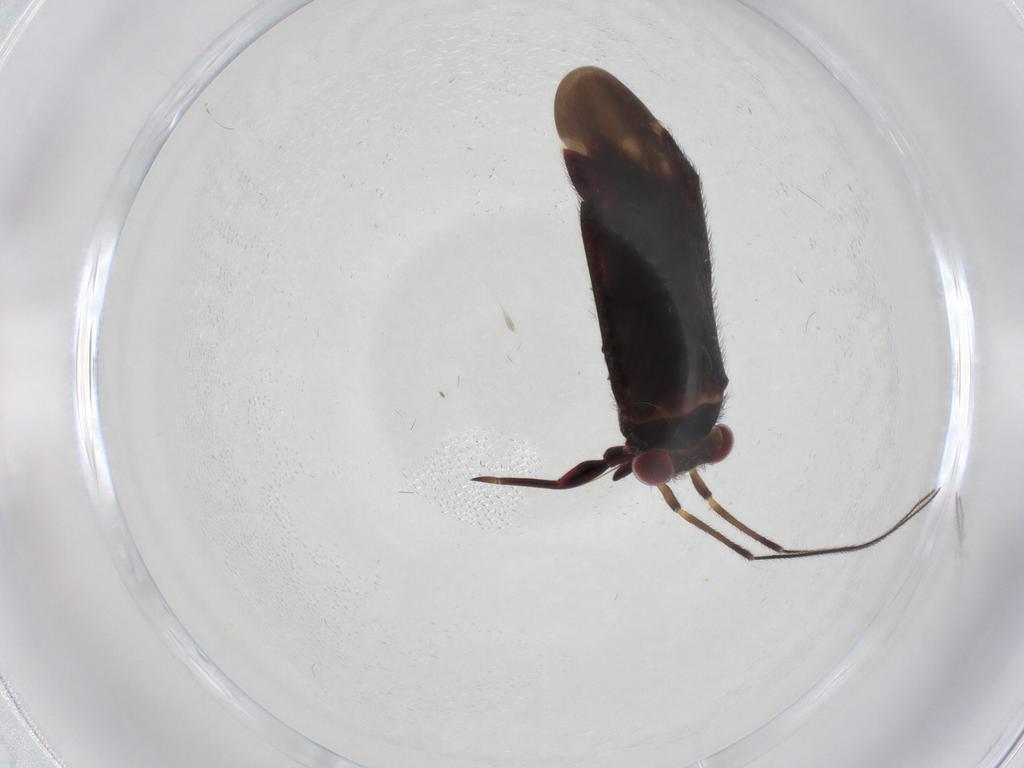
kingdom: Animalia
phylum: Arthropoda
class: Insecta
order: Hemiptera
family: Miridae
